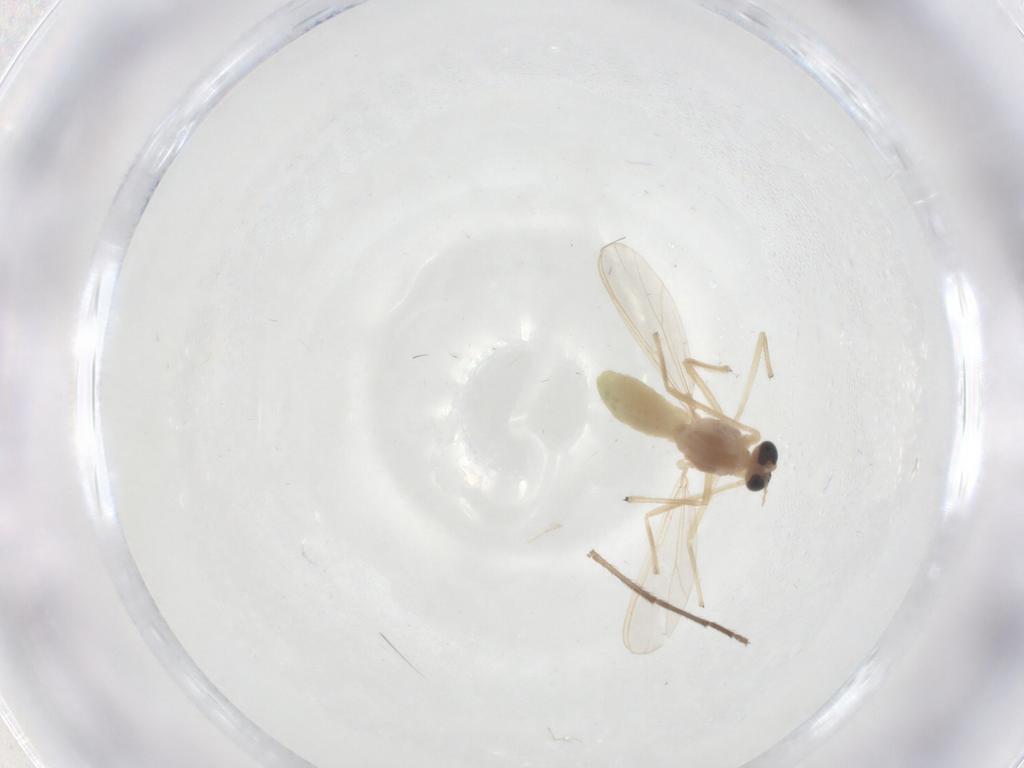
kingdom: Animalia
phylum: Arthropoda
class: Insecta
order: Diptera
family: Chironomidae
